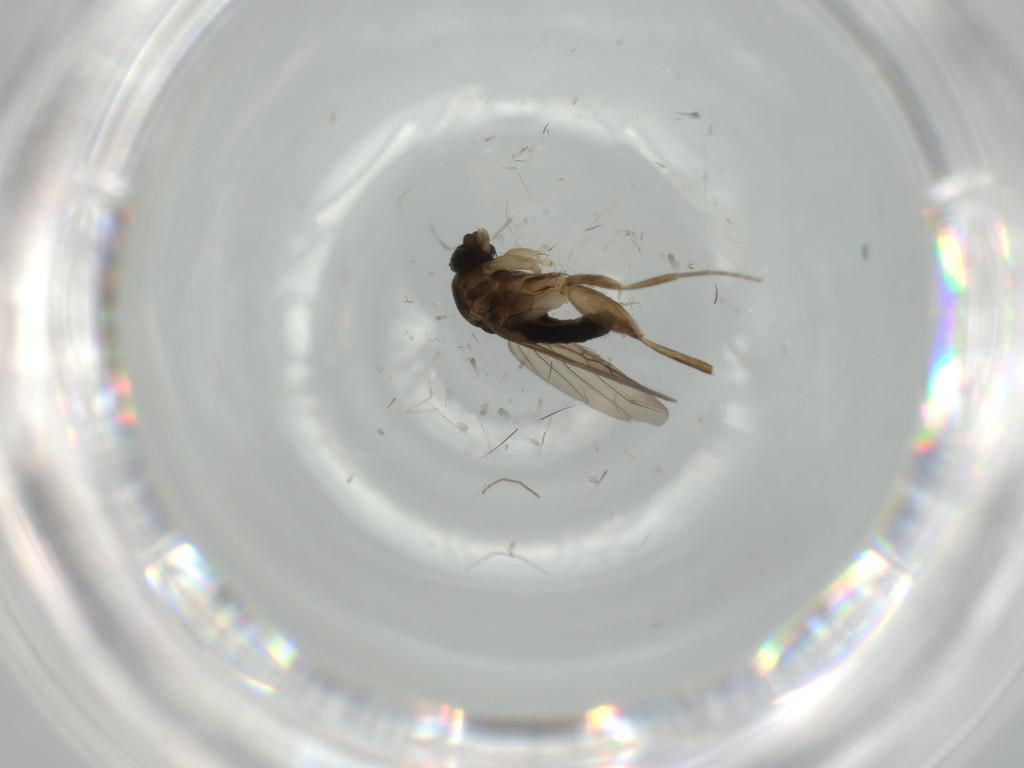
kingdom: Animalia
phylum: Arthropoda
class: Insecta
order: Diptera
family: Phoridae
